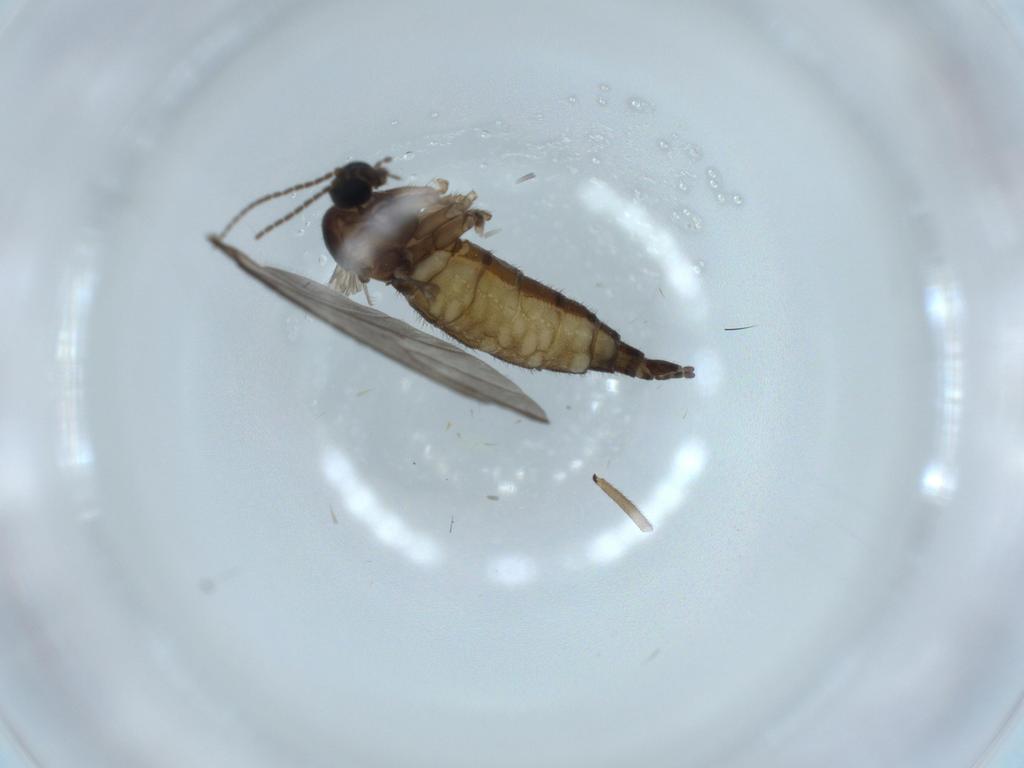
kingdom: Animalia
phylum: Arthropoda
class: Insecta
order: Diptera
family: Sciaridae
